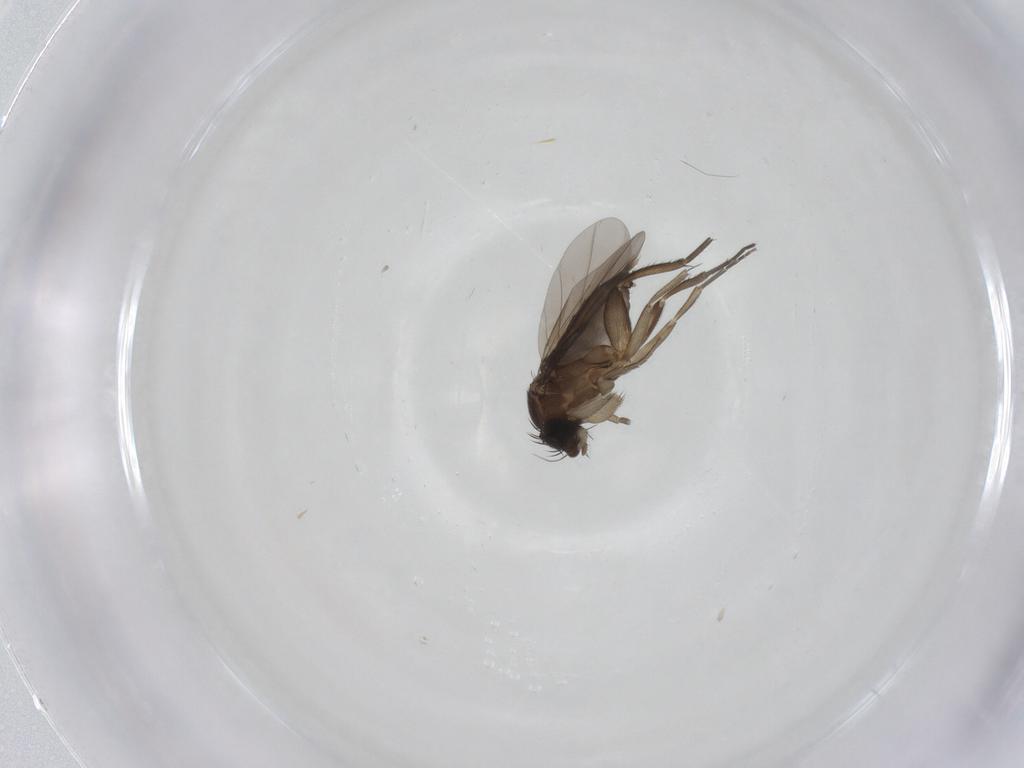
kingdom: Animalia
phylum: Arthropoda
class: Insecta
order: Diptera
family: Phoridae
